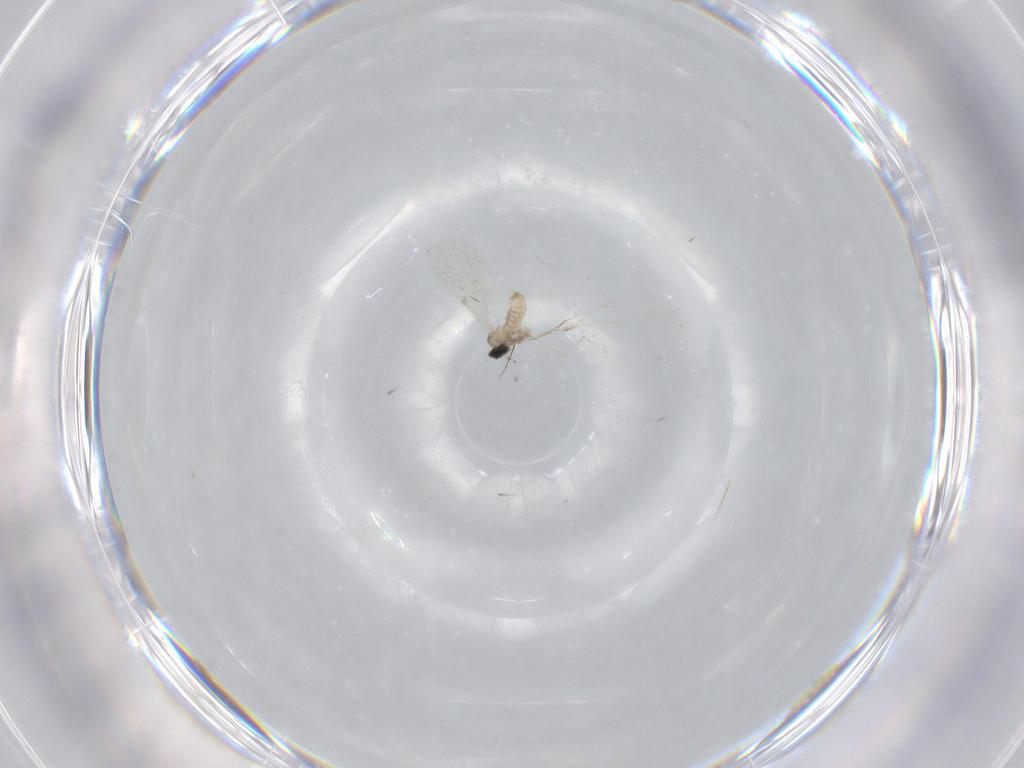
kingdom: Animalia
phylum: Arthropoda
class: Insecta
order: Diptera
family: Cecidomyiidae
